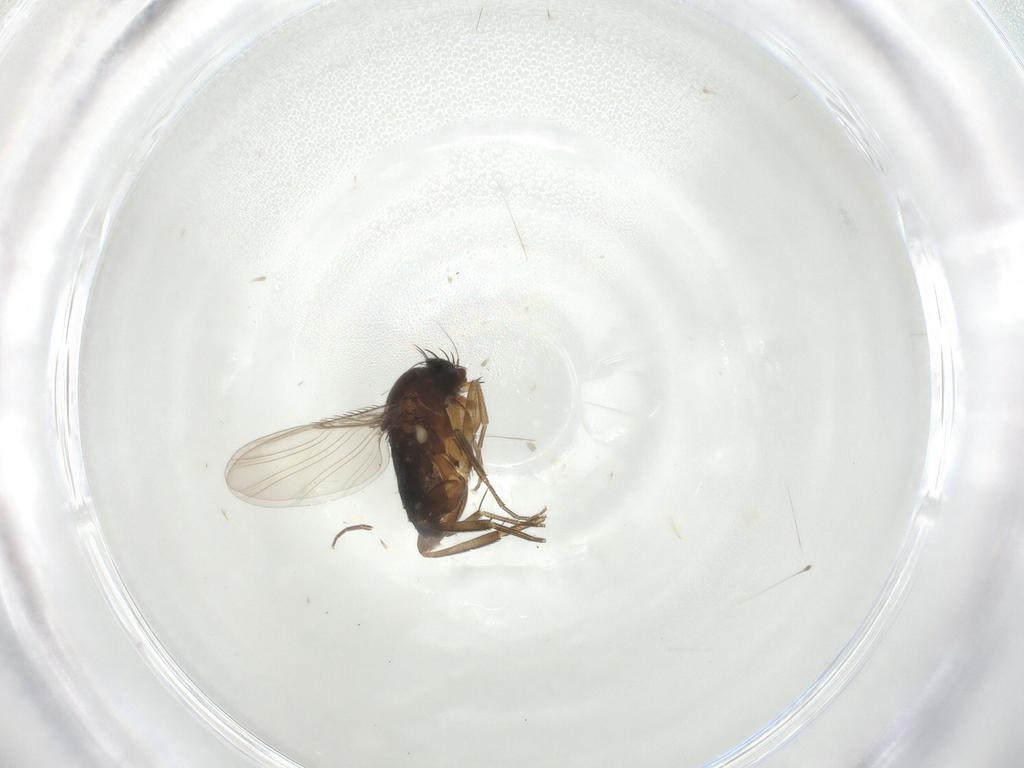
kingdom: Animalia
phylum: Arthropoda
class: Insecta
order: Diptera
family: Phoridae
